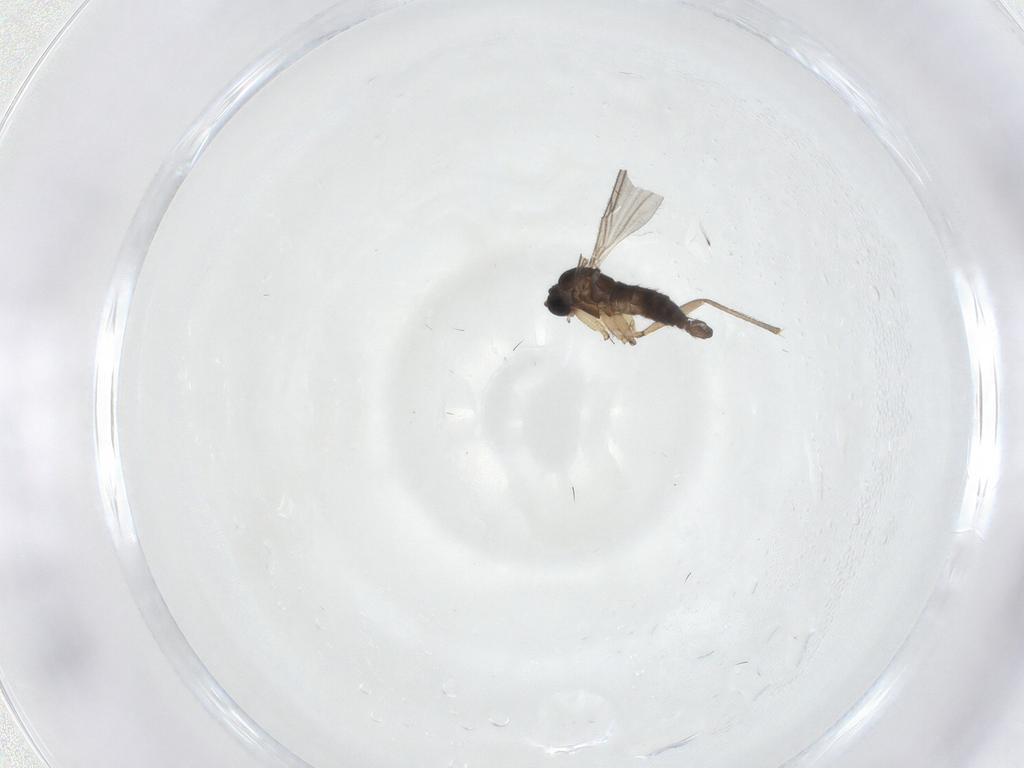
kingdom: Animalia
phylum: Arthropoda
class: Insecta
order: Diptera
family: Sciaridae
